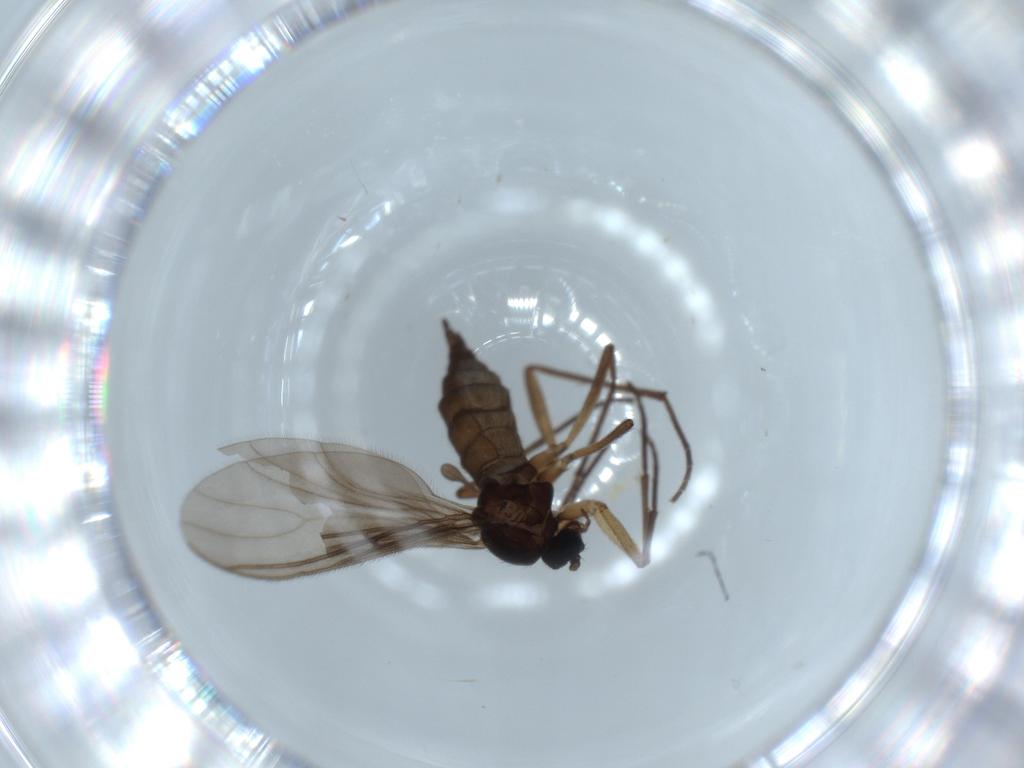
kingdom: Animalia
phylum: Arthropoda
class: Insecta
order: Diptera
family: Sciaridae
